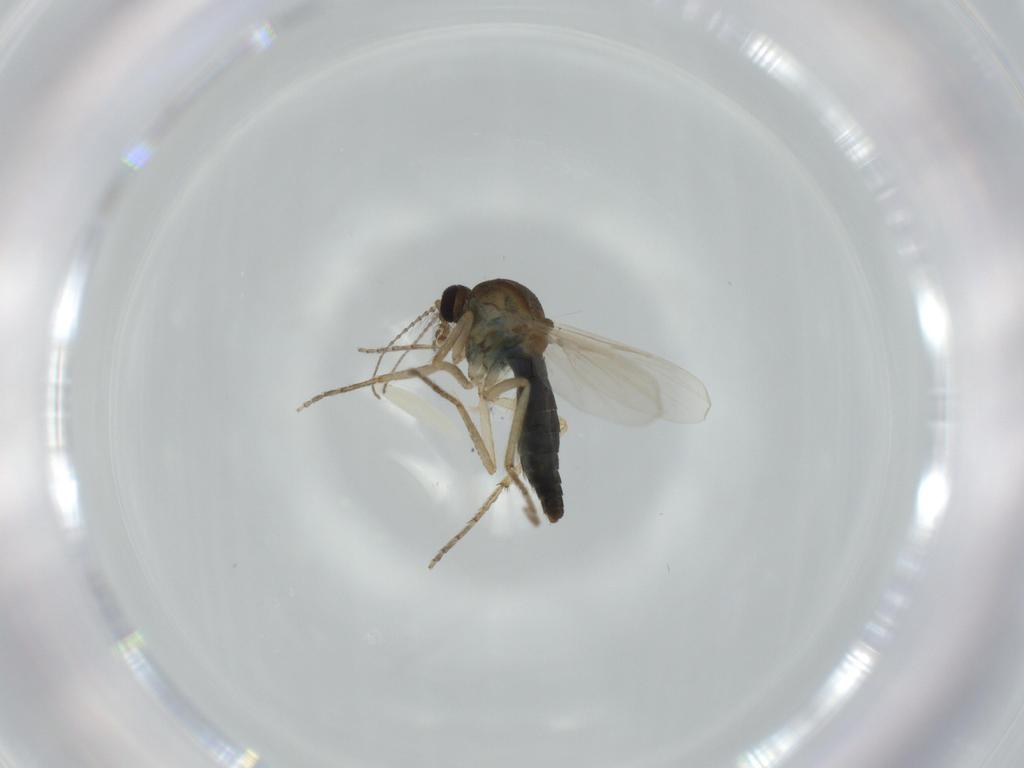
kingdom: Animalia
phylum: Arthropoda
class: Insecta
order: Diptera
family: Ceratopogonidae
